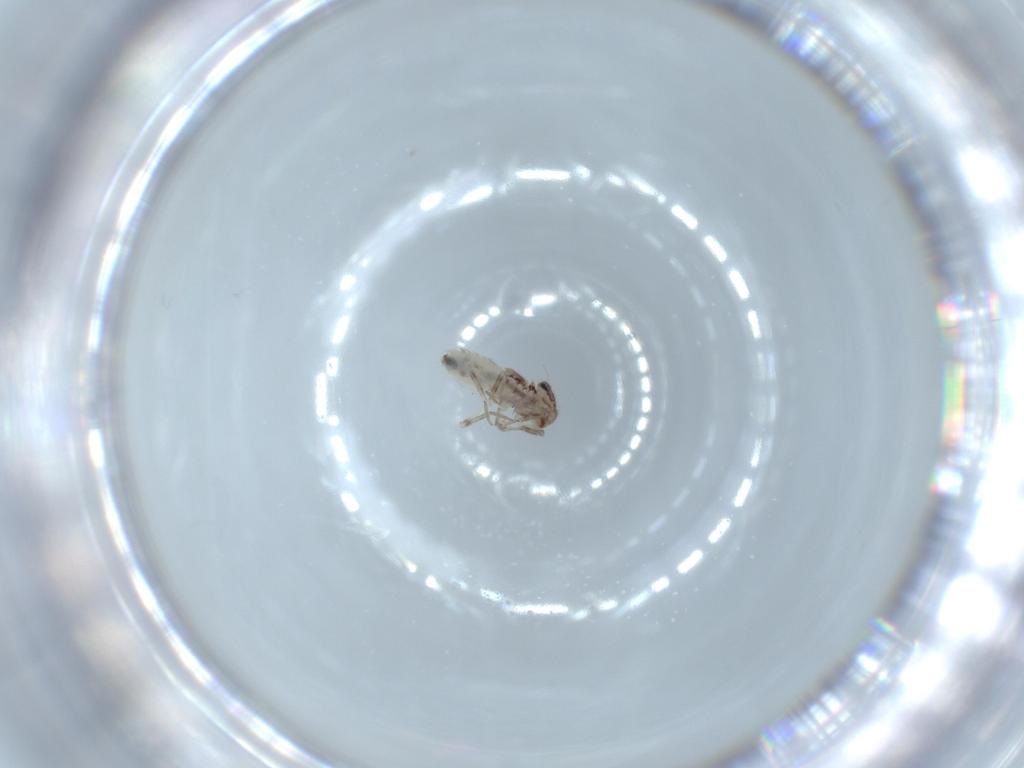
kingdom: Animalia
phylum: Arthropoda
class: Insecta
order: Psocodea
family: Lepidopsocidae
